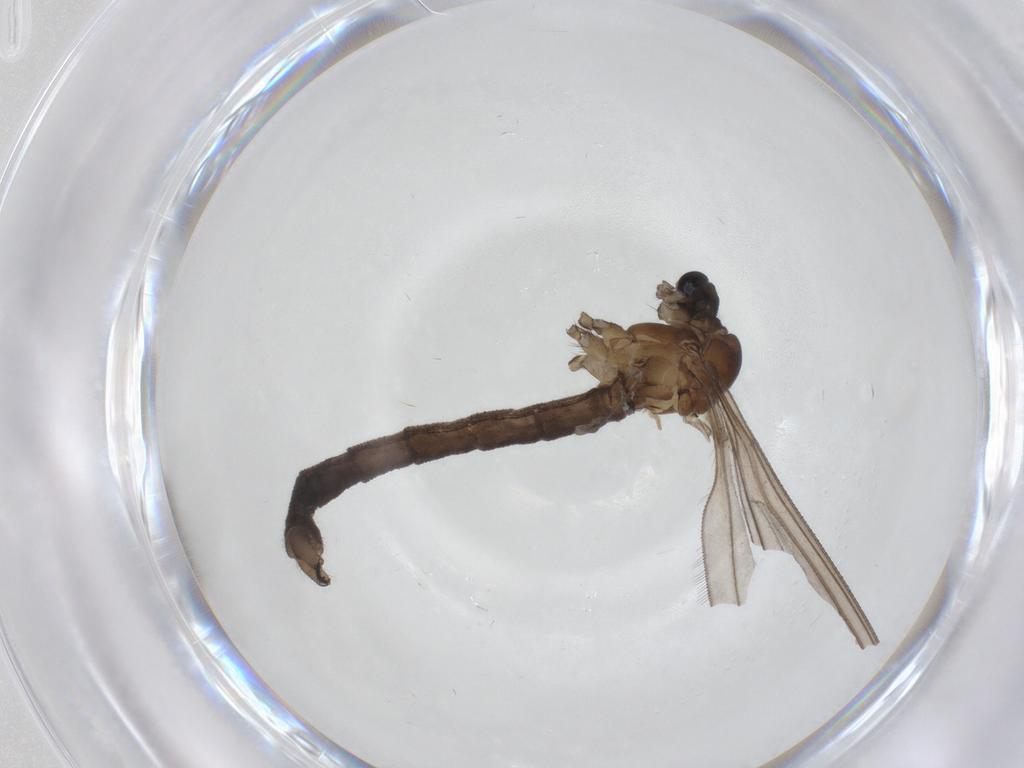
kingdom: Animalia
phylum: Arthropoda
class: Insecta
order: Diptera
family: Limoniidae
